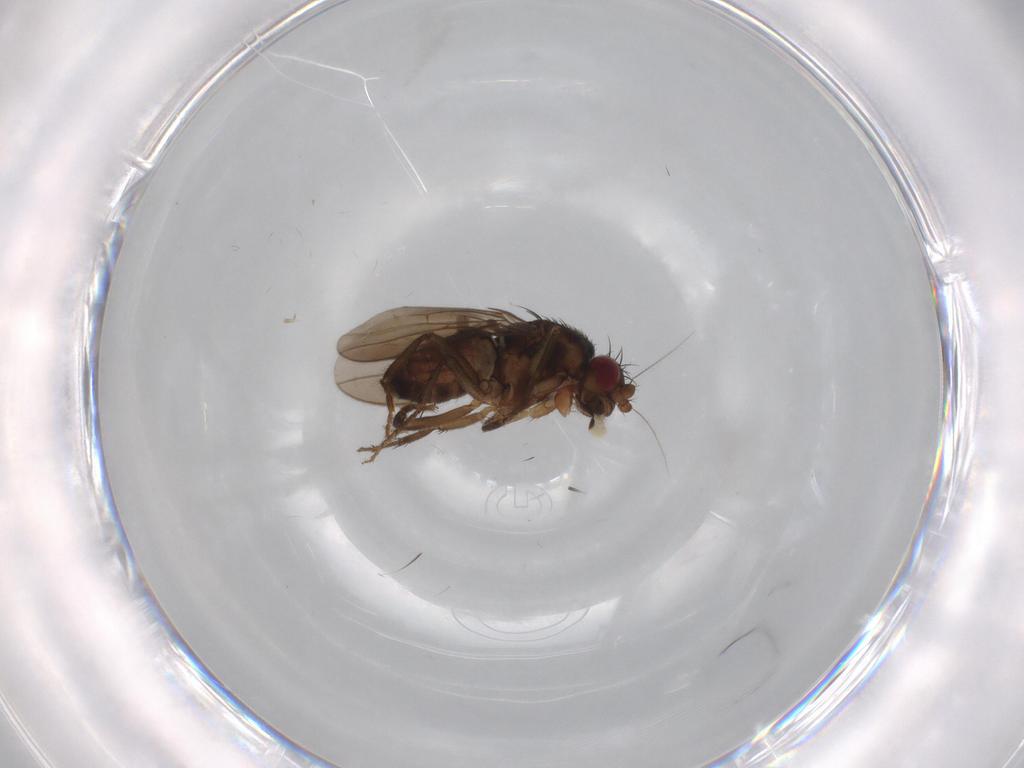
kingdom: Animalia
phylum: Arthropoda
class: Insecta
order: Diptera
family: Sphaeroceridae
